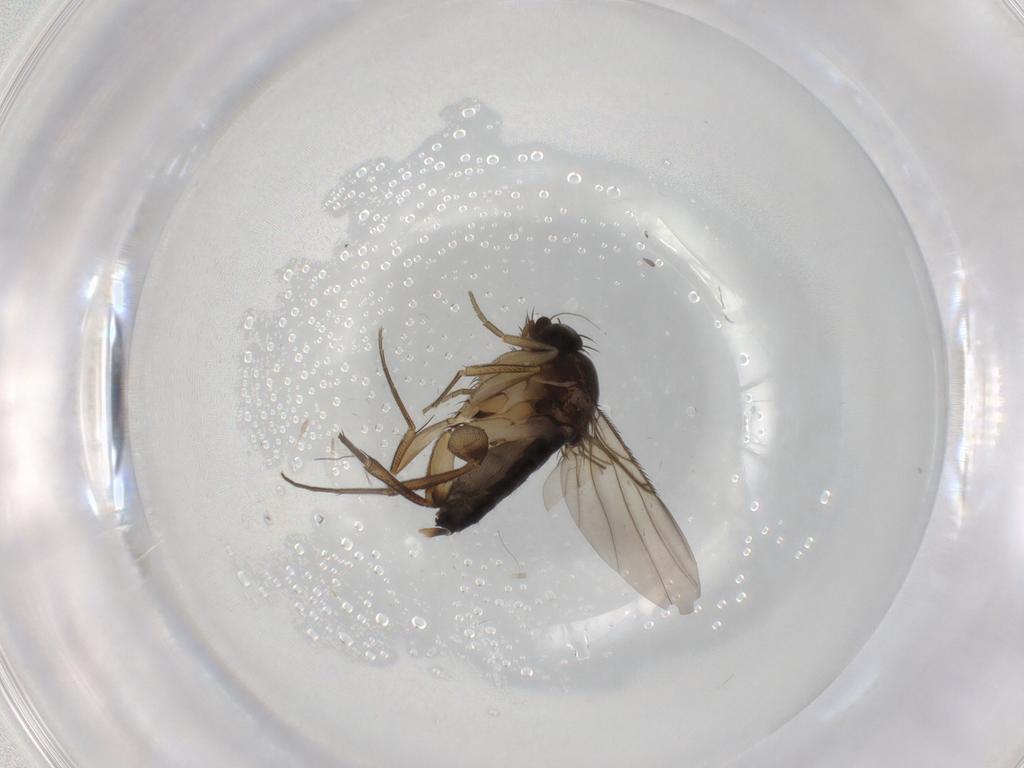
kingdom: Animalia
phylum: Arthropoda
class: Insecta
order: Diptera
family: Phoridae
